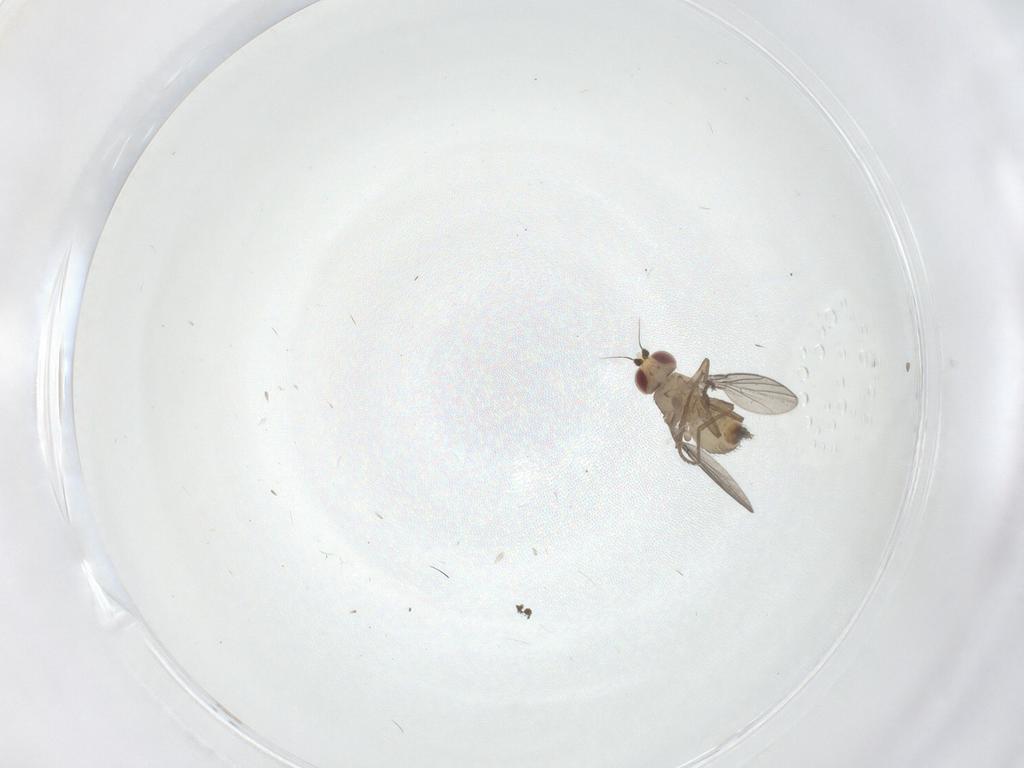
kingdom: Animalia
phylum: Arthropoda
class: Insecta
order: Diptera
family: Agromyzidae
